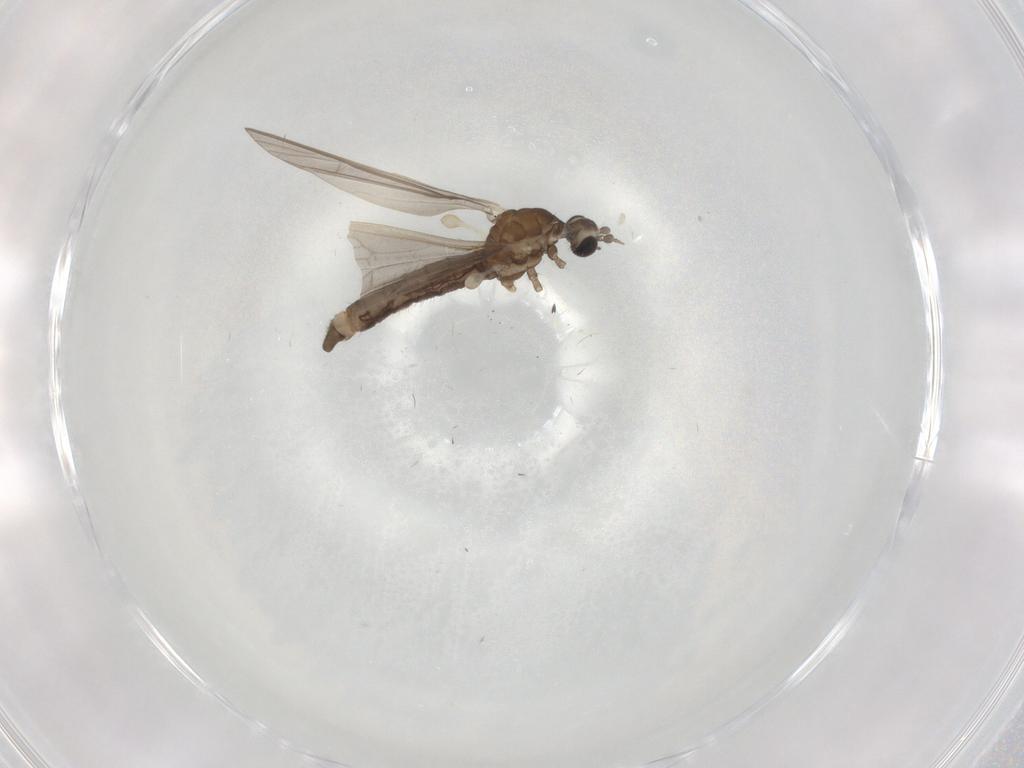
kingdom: Animalia
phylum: Arthropoda
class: Insecta
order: Diptera
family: Limoniidae
